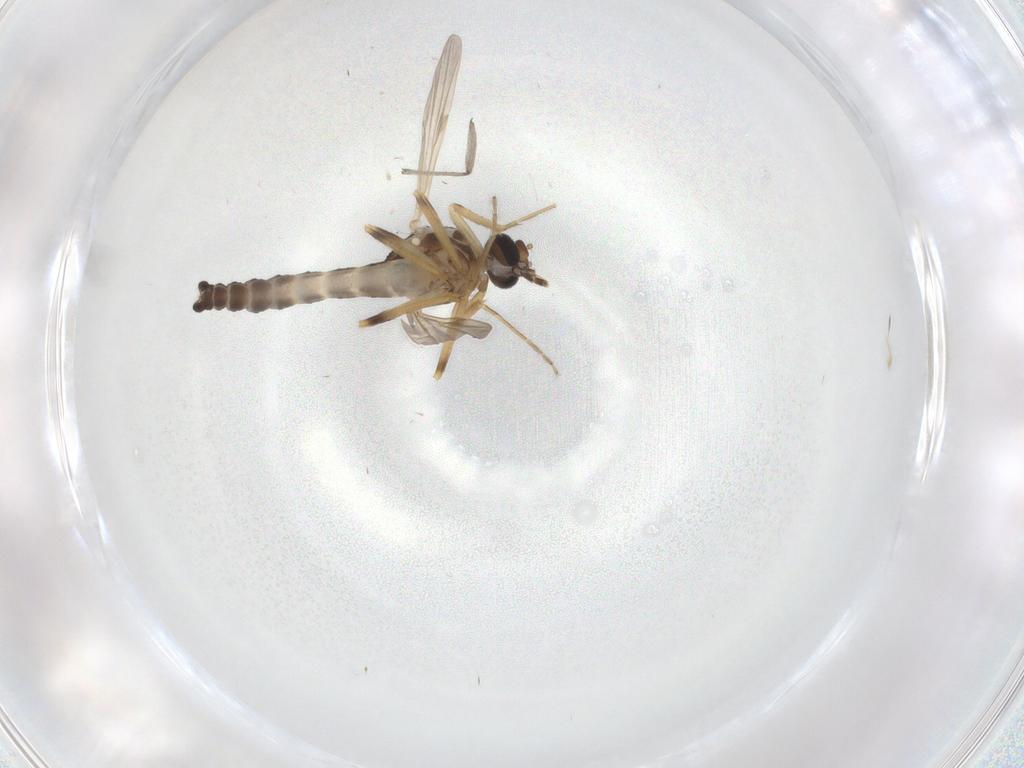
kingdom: Animalia
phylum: Arthropoda
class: Insecta
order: Diptera
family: Ceratopogonidae
